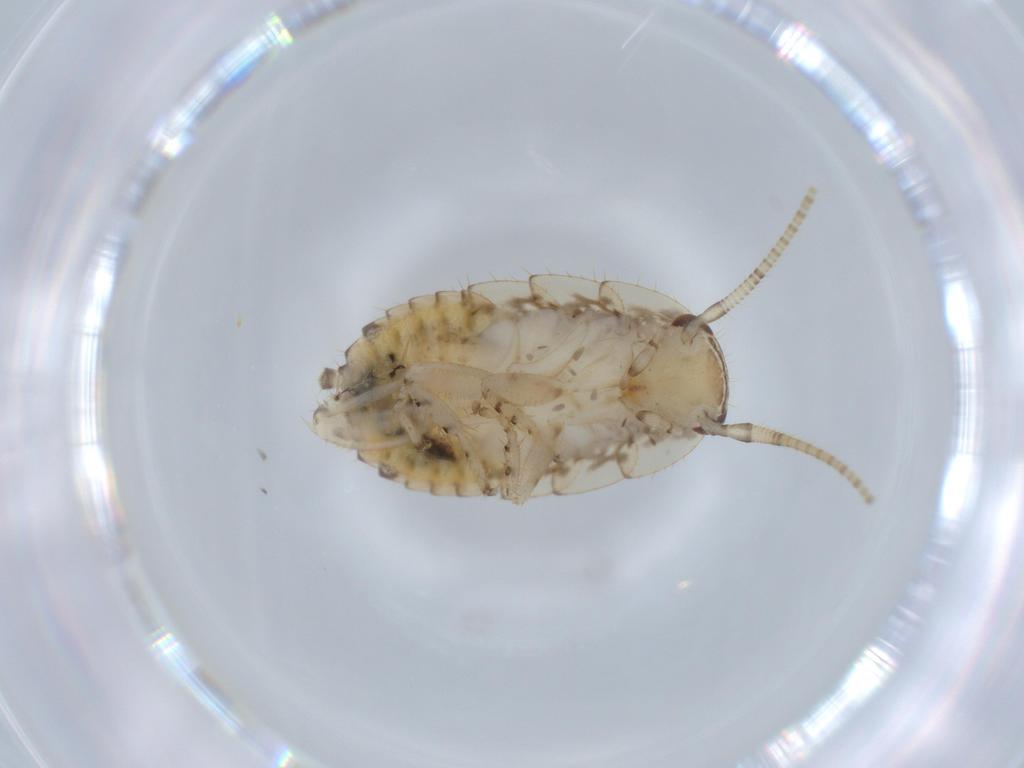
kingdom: Animalia
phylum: Arthropoda
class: Insecta
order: Blattodea
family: Ectobiidae
